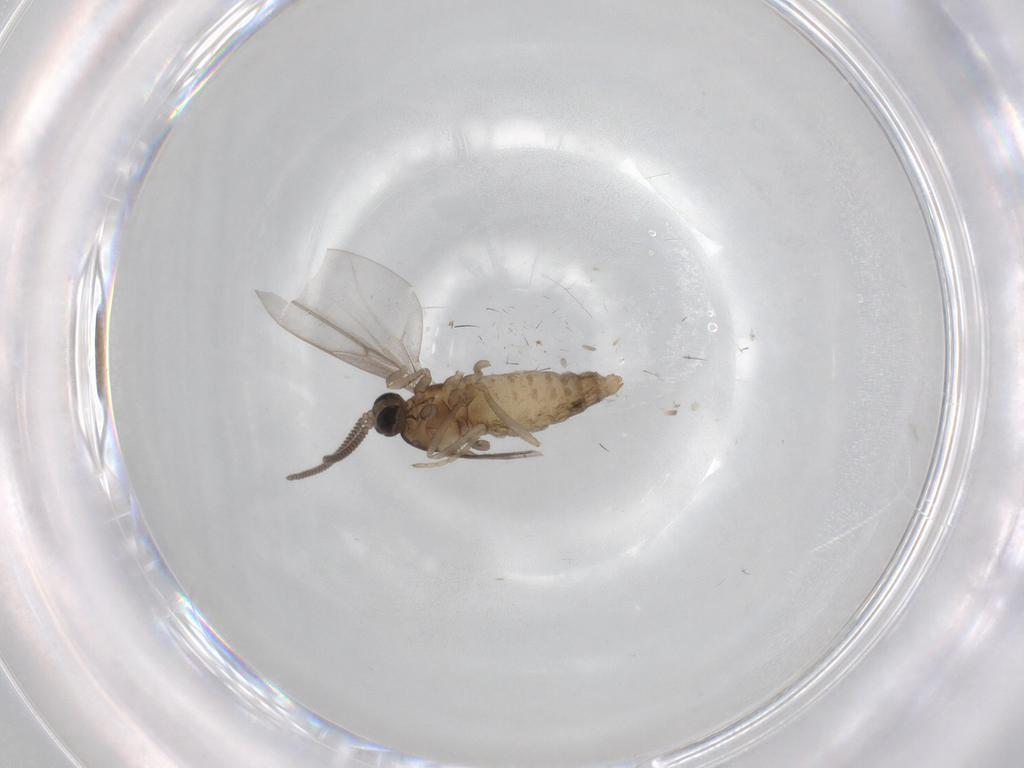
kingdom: Animalia
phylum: Arthropoda
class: Insecta
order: Diptera
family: Cecidomyiidae
